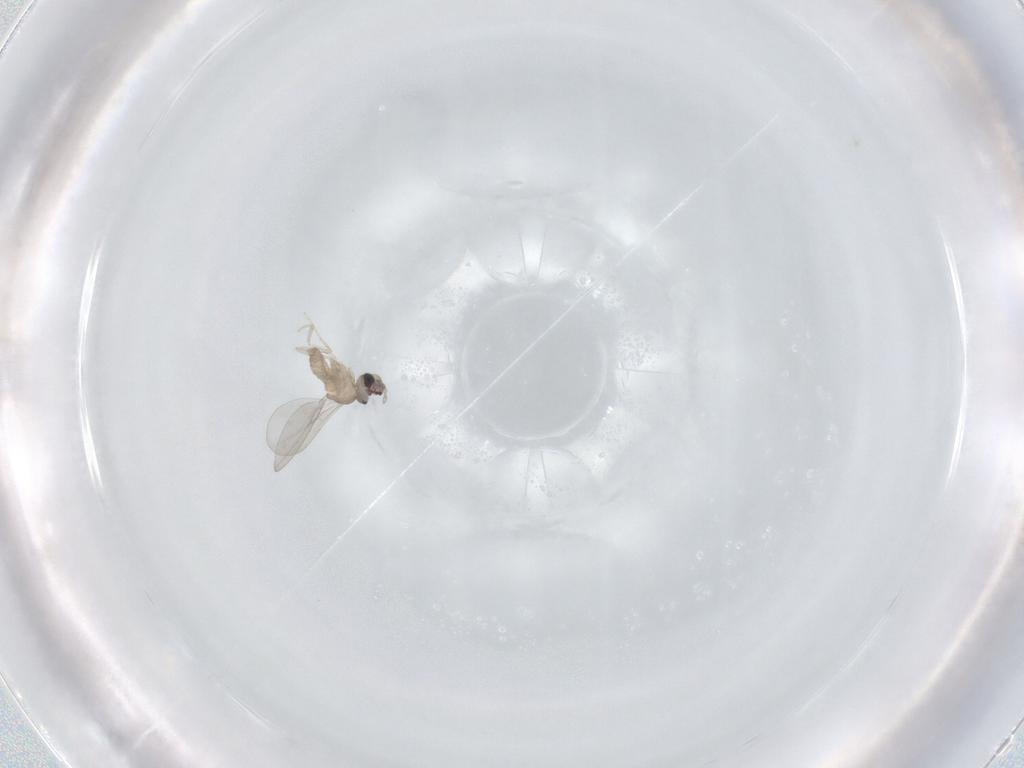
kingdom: Animalia
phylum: Arthropoda
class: Insecta
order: Diptera
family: Cecidomyiidae
